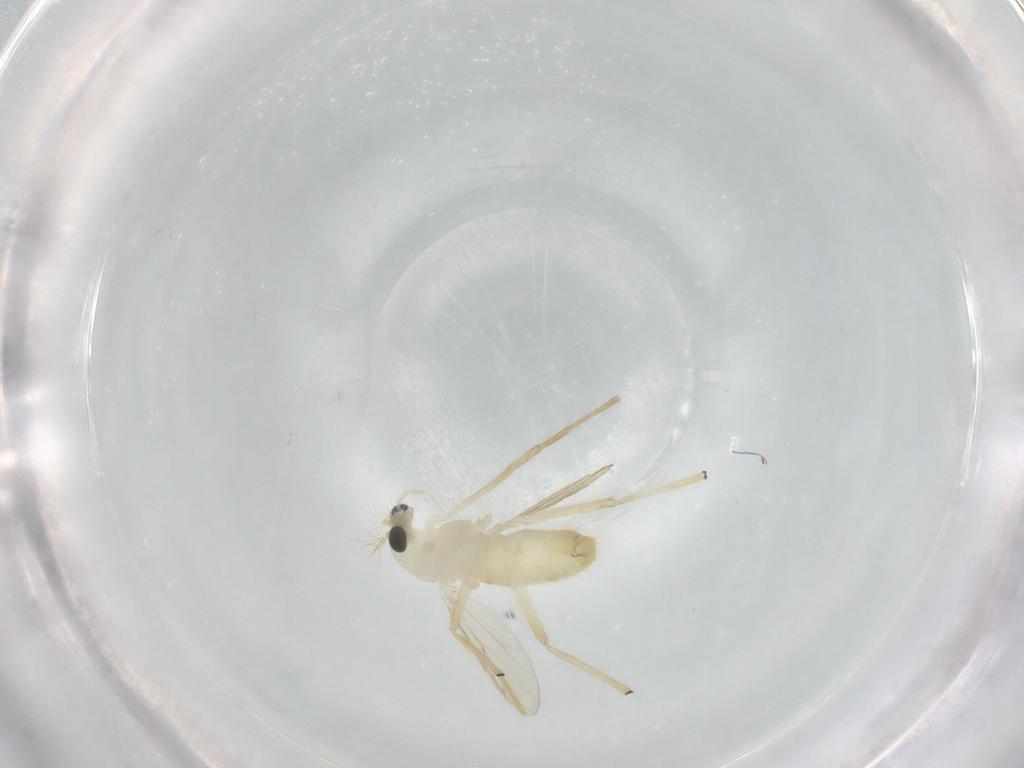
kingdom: Animalia
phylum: Arthropoda
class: Insecta
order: Diptera
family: Chironomidae
